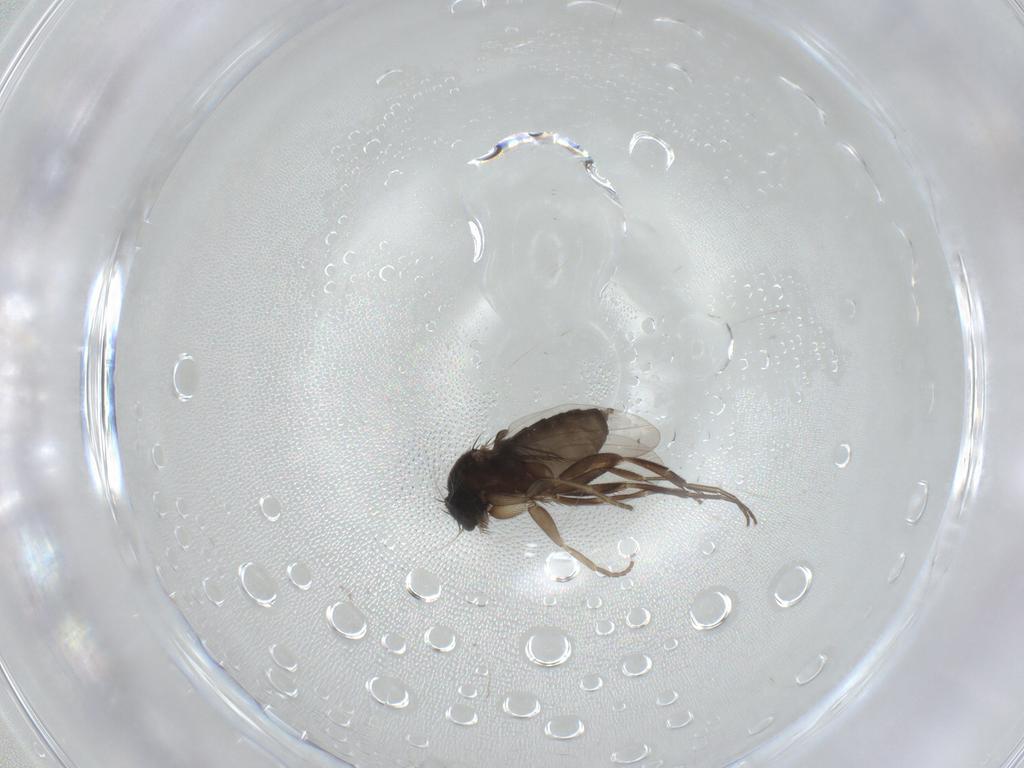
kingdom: Animalia
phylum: Arthropoda
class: Insecta
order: Diptera
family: Phoridae
